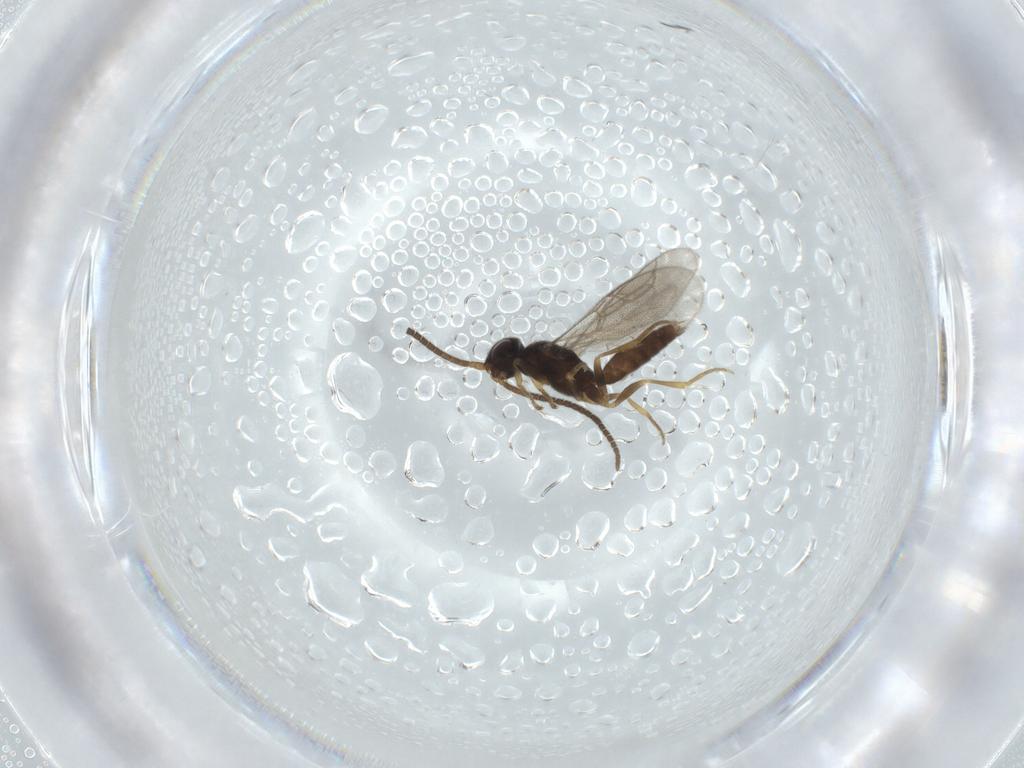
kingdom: Animalia
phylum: Arthropoda
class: Insecta
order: Hymenoptera
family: Sclerogibbidae
